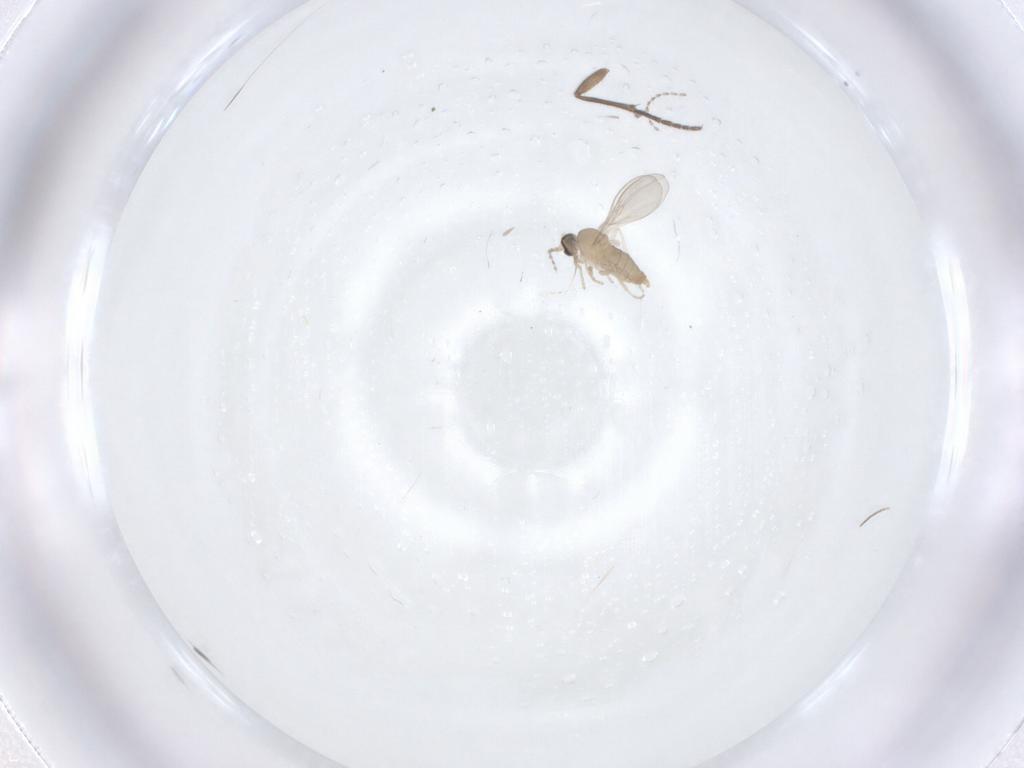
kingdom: Animalia
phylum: Arthropoda
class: Insecta
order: Diptera
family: Cecidomyiidae
